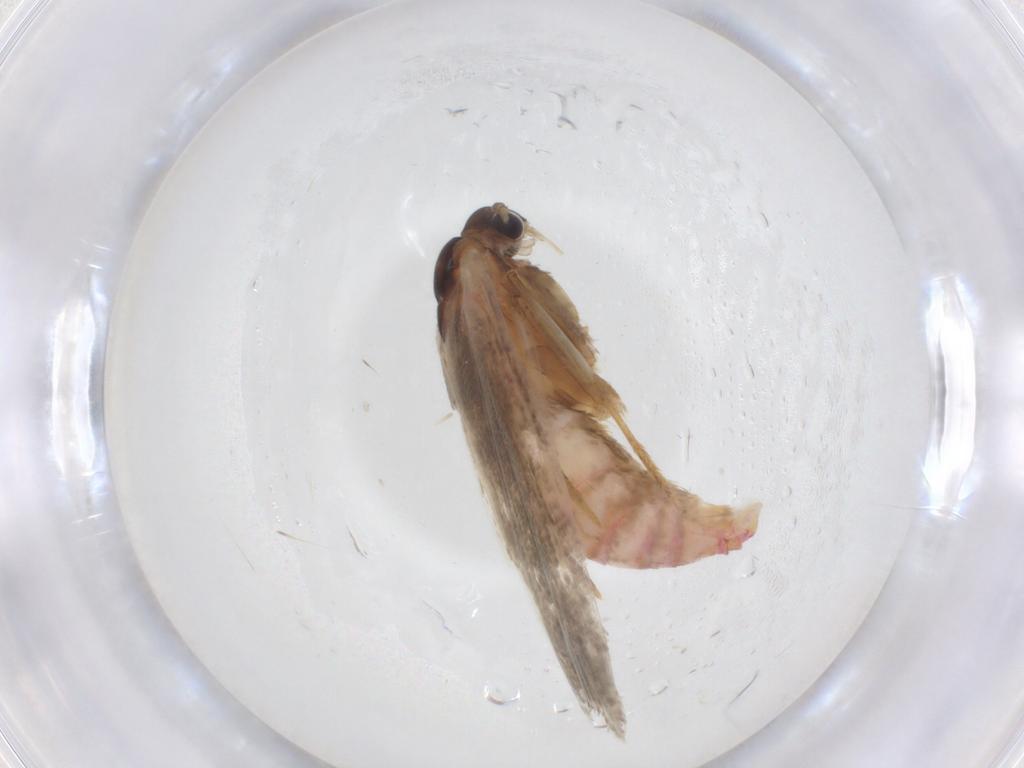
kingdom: Animalia
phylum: Arthropoda
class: Insecta
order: Lepidoptera
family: Autostichidae
